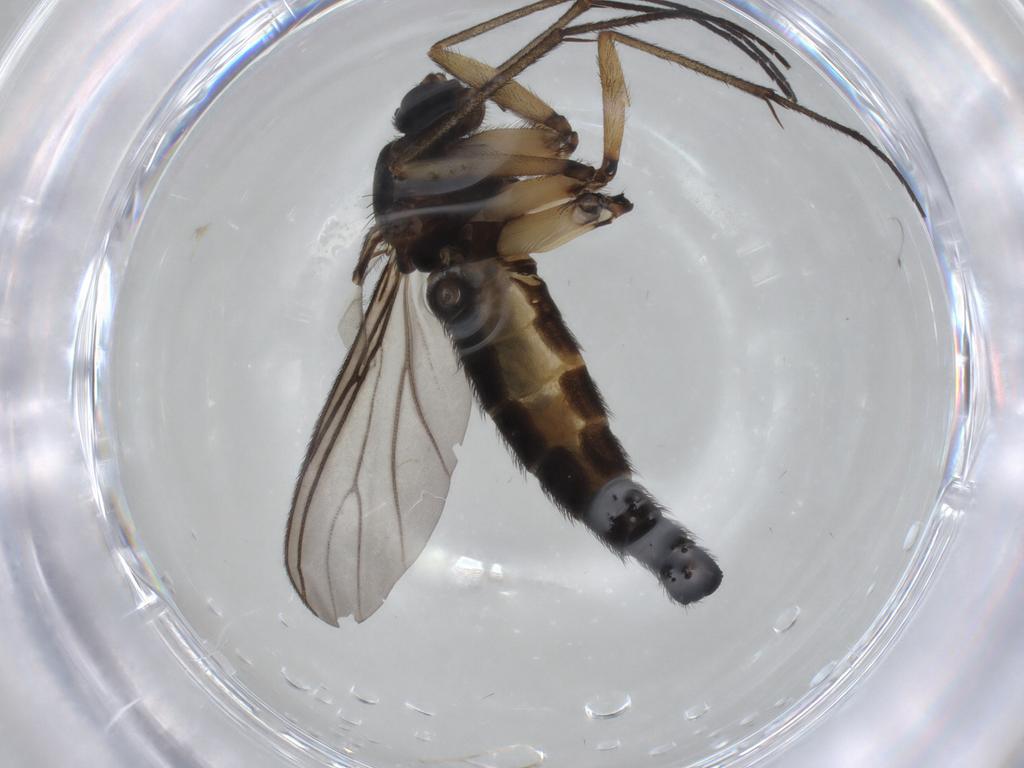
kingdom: Animalia
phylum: Arthropoda
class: Insecta
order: Diptera
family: Sciaridae
